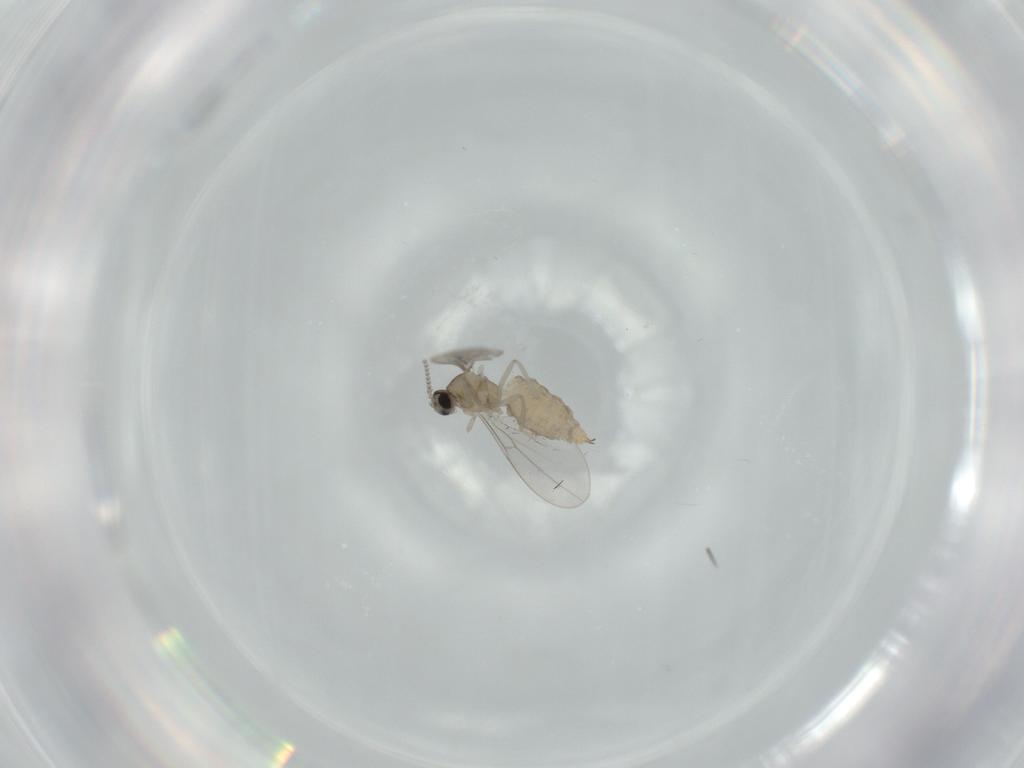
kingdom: Animalia
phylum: Arthropoda
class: Insecta
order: Diptera
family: Cecidomyiidae
